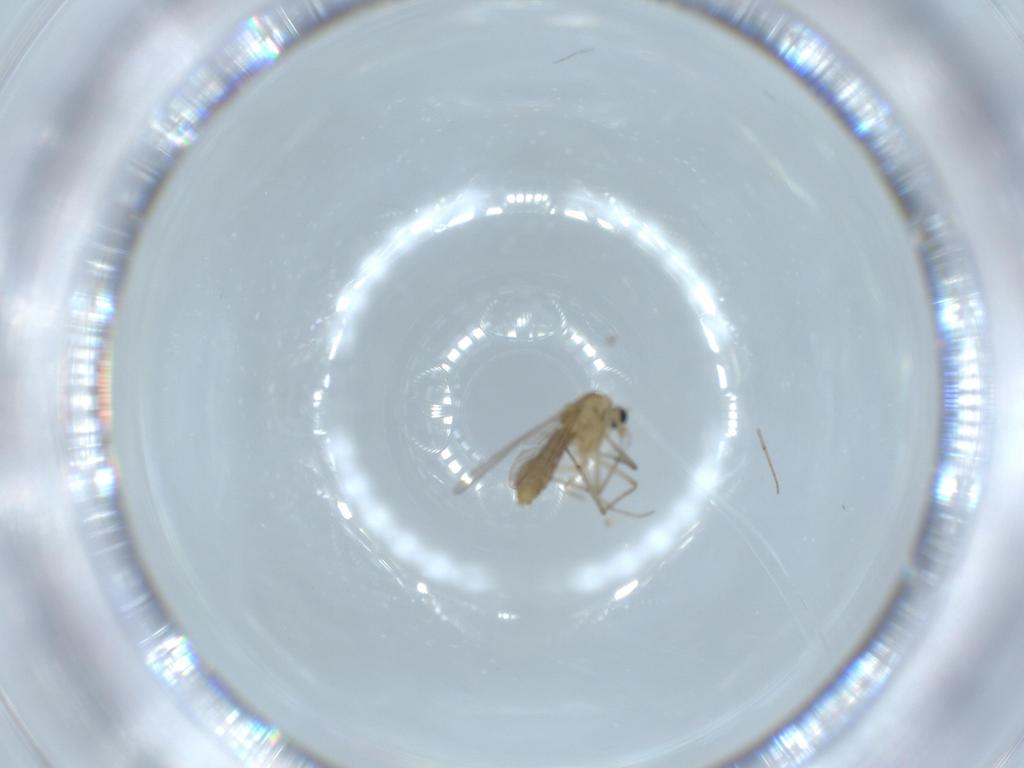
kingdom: Animalia
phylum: Arthropoda
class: Insecta
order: Diptera
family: Chironomidae
